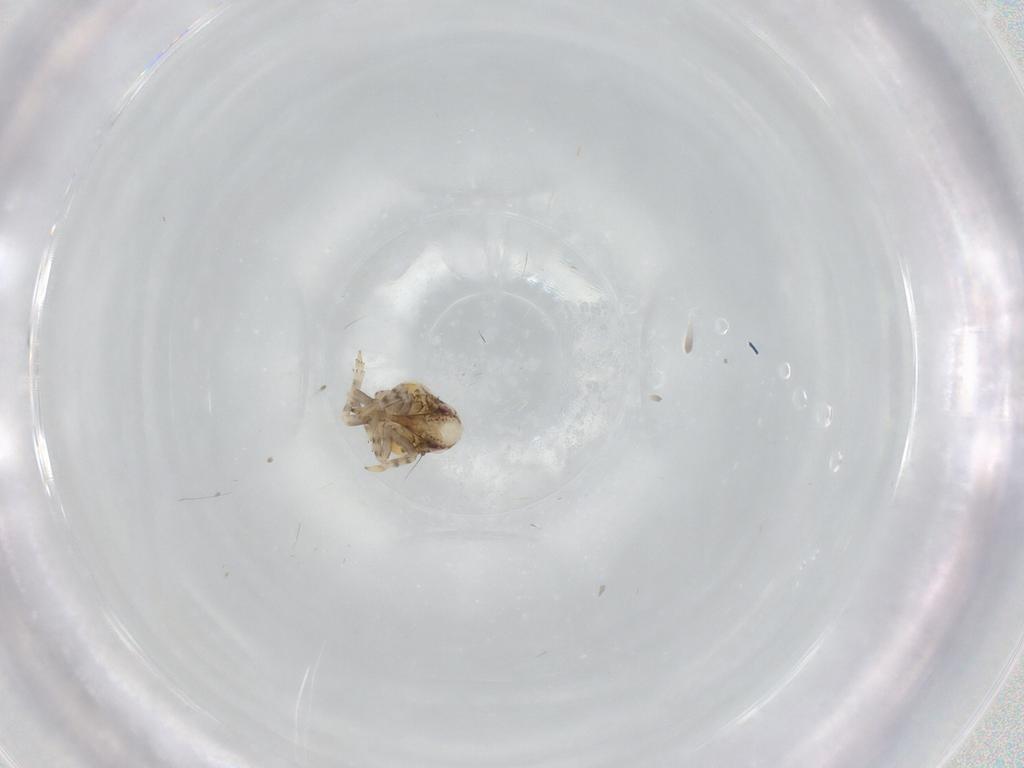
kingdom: Animalia
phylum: Arthropoda
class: Insecta
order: Hemiptera
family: Acanaloniidae
